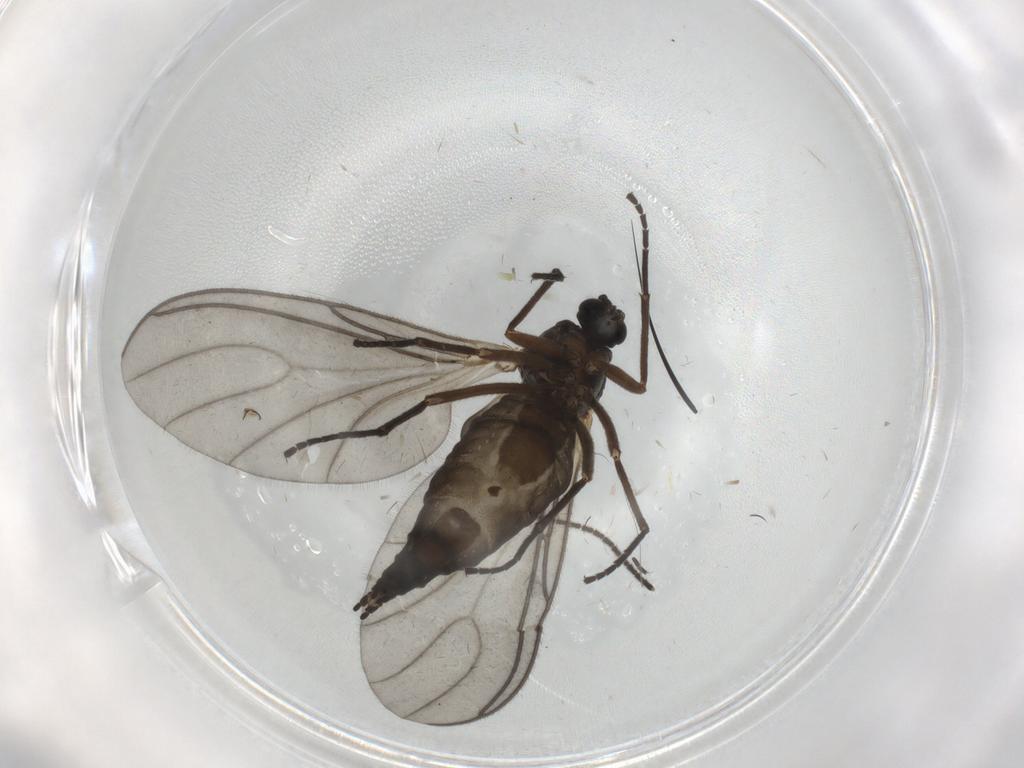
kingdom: Animalia
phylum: Arthropoda
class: Insecta
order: Diptera
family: Sciaridae
